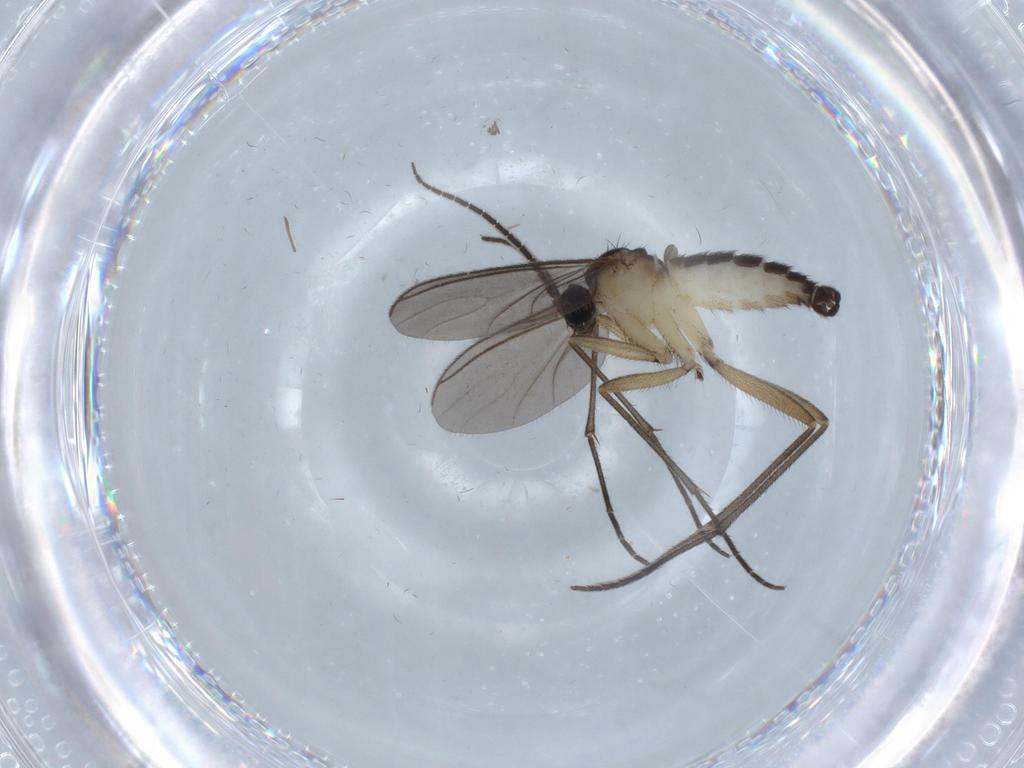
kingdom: Animalia
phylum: Arthropoda
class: Insecta
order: Diptera
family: Sciaridae
